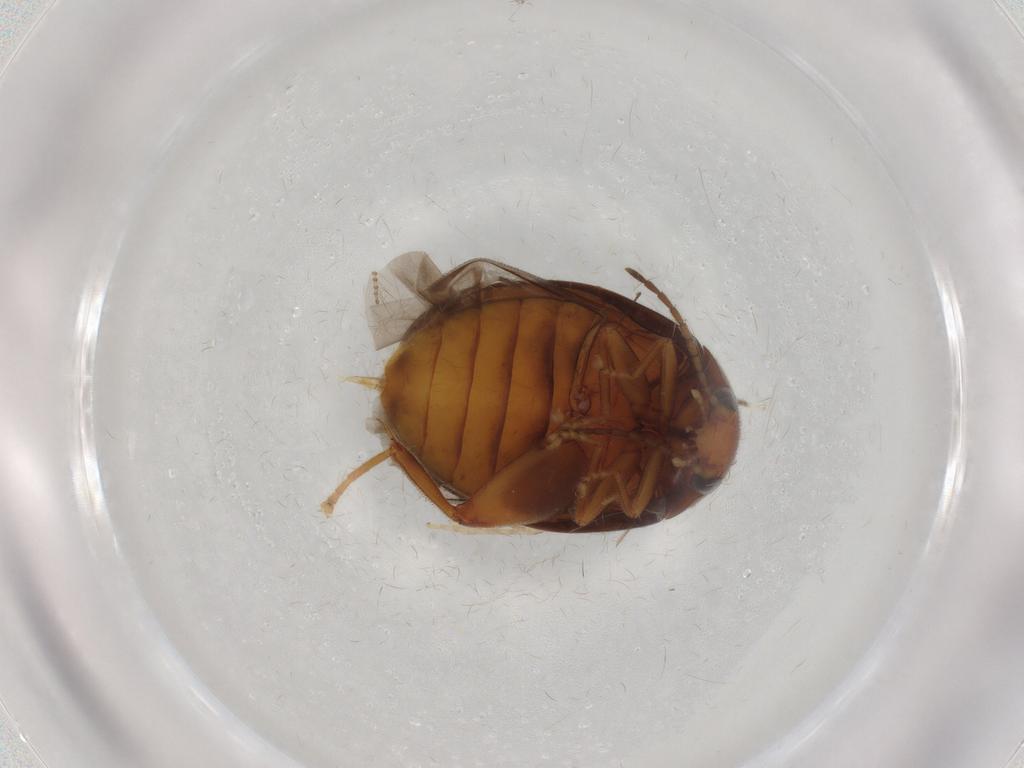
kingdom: Animalia
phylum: Arthropoda
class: Insecta
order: Coleoptera
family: Scirtidae
